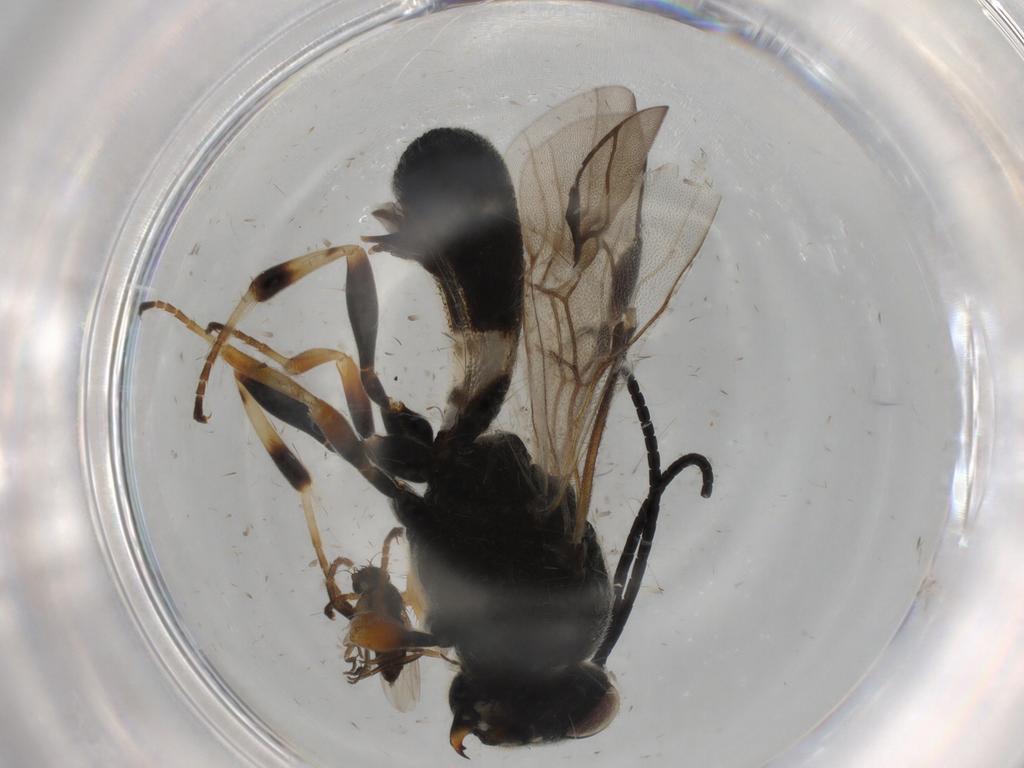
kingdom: Animalia
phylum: Arthropoda
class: Insecta
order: Hymenoptera
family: Braconidae
